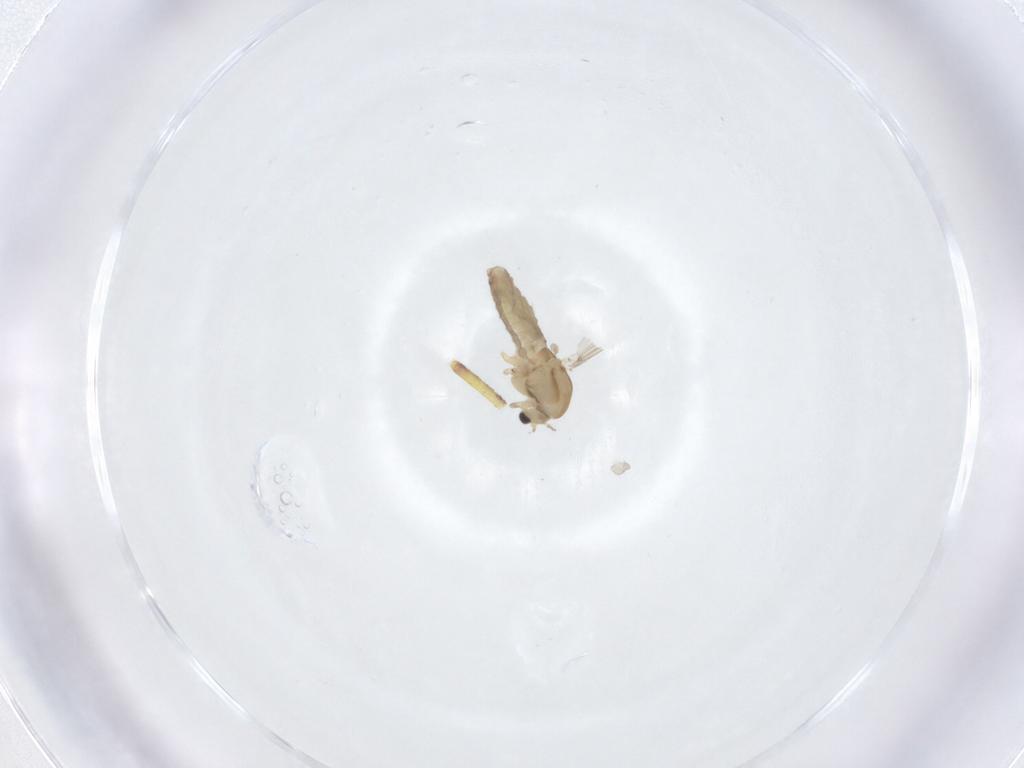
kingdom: Animalia
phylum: Arthropoda
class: Insecta
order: Diptera
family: Chironomidae
